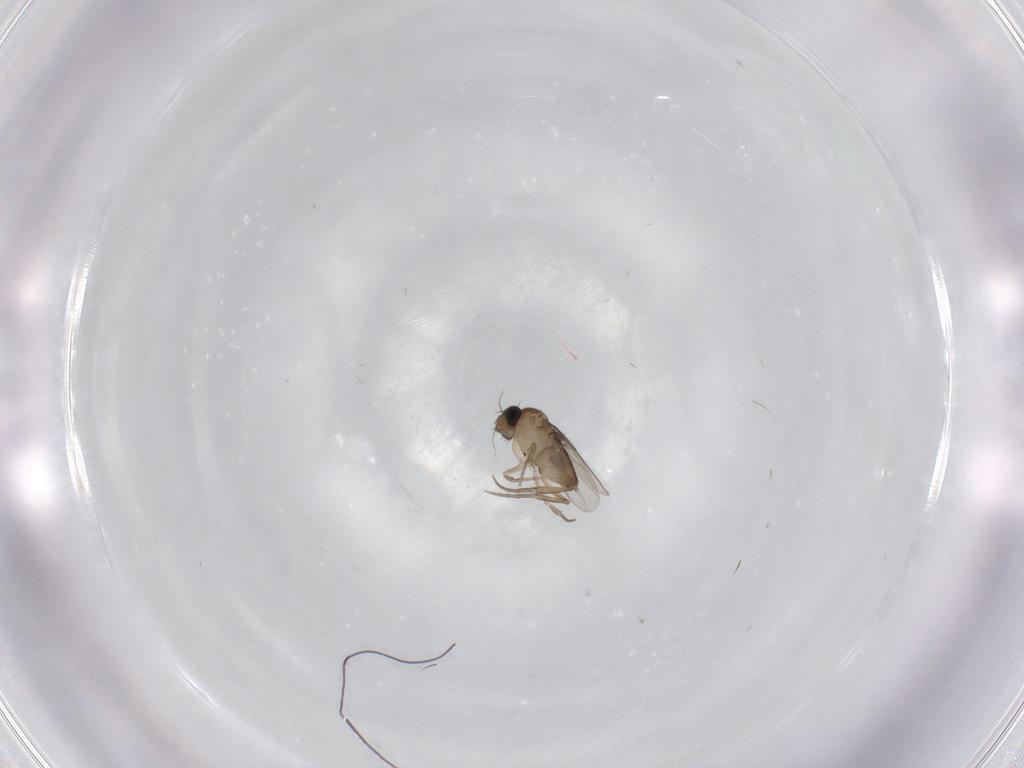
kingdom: Animalia
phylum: Arthropoda
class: Insecta
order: Diptera
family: Phoridae
